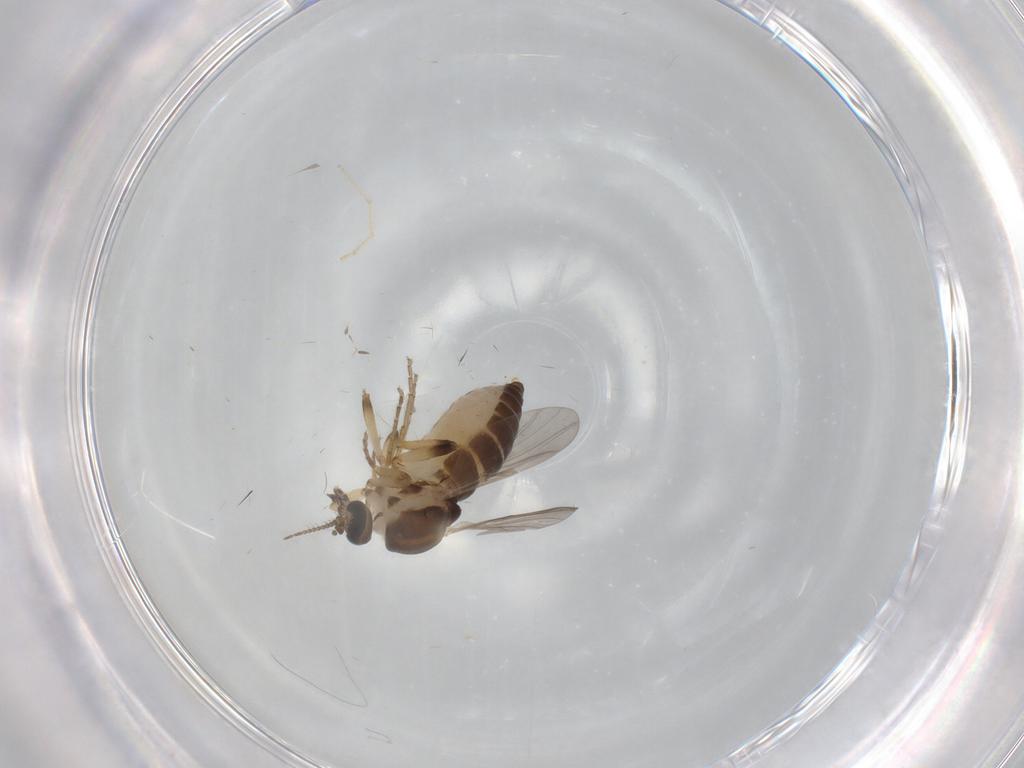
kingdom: Animalia
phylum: Arthropoda
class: Insecta
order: Diptera
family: Ceratopogonidae
